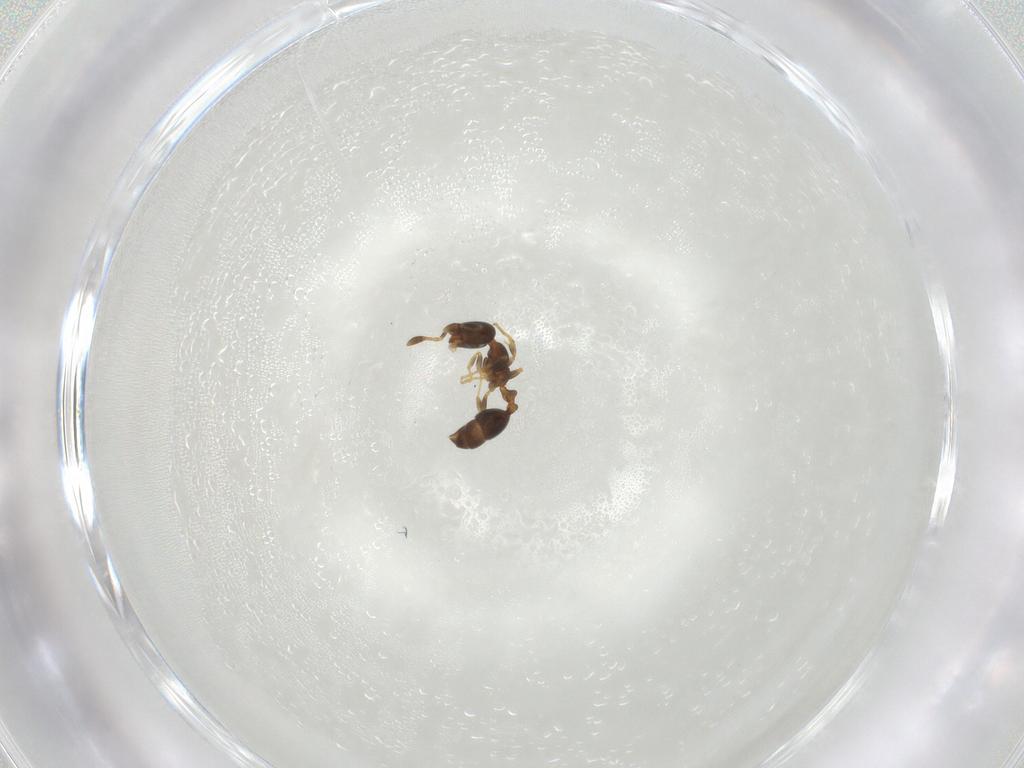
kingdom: Animalia
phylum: Arthropoda
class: Insecta
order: Hymenoptera
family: Formicidae
